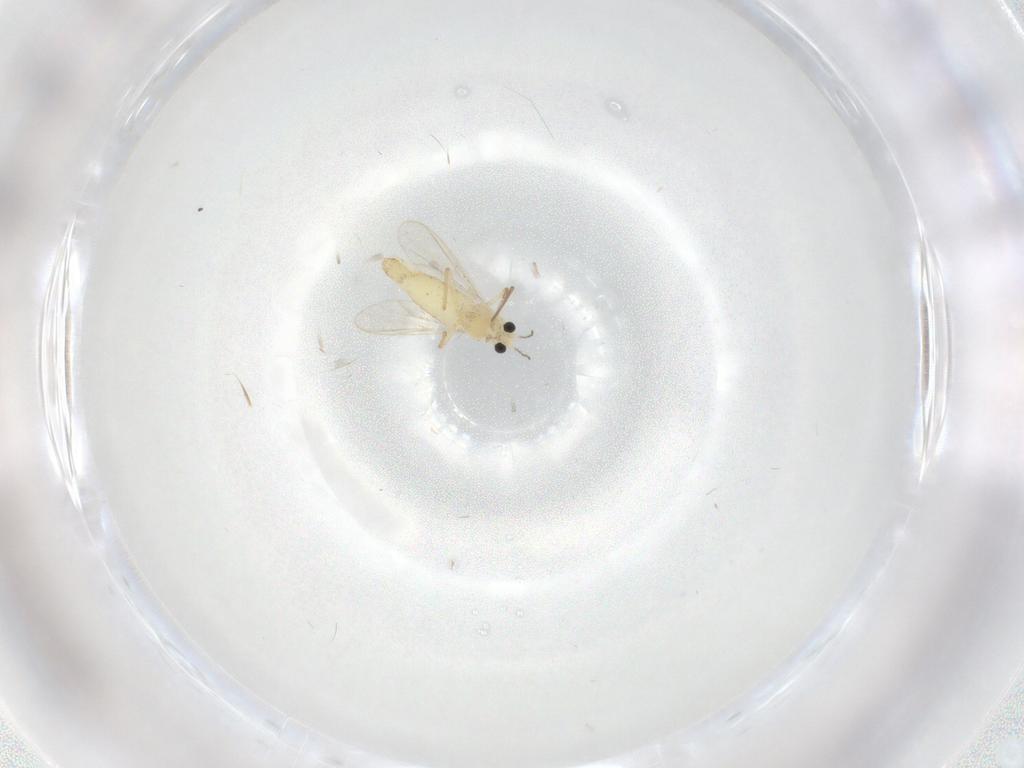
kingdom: Animalia
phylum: Arthropoda
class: Insecta
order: Diptera
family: Chironomidae
